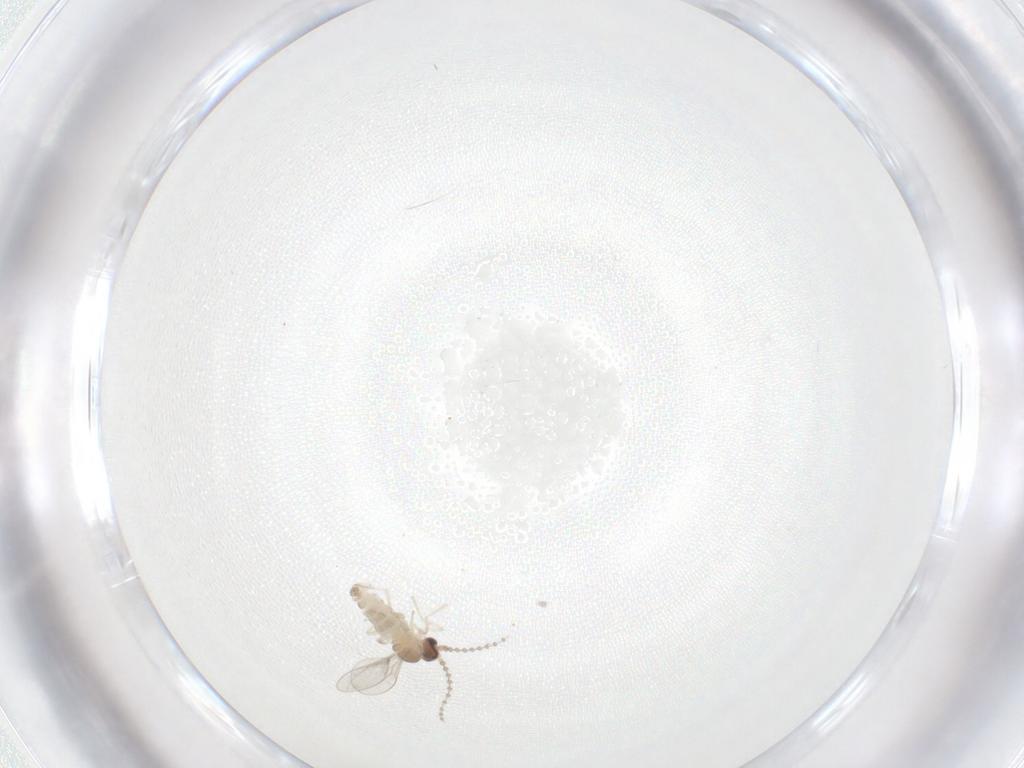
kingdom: Animalia
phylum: Arthropoda
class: Insecta
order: Diptera
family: Cecidomyiidae
